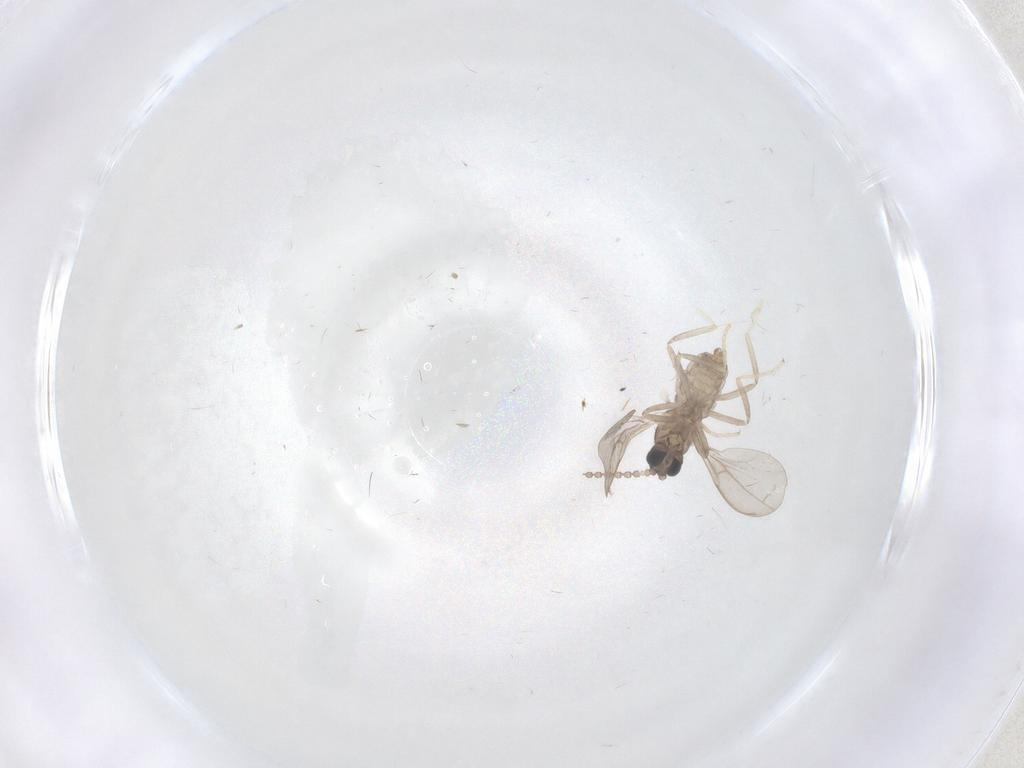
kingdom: Animalia
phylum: Arthropoda
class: Insecta
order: Diptera
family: Cecidomyiidae
